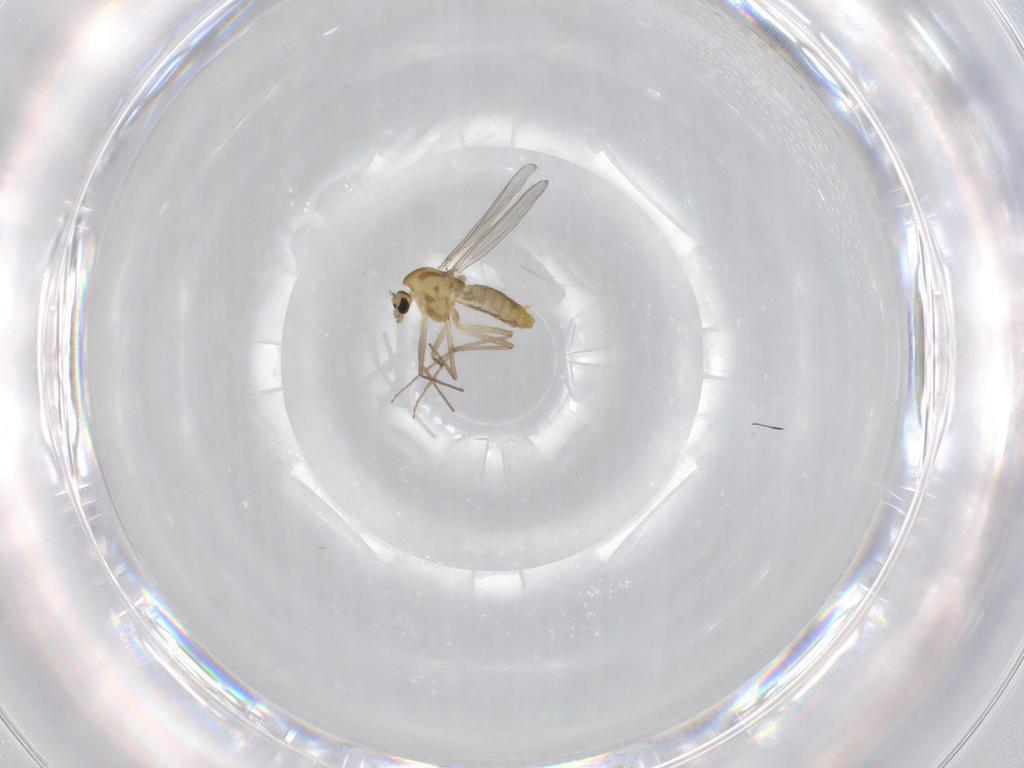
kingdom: Animalia
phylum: Arthropoda
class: Insecta
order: Diptera
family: Chironomidae
